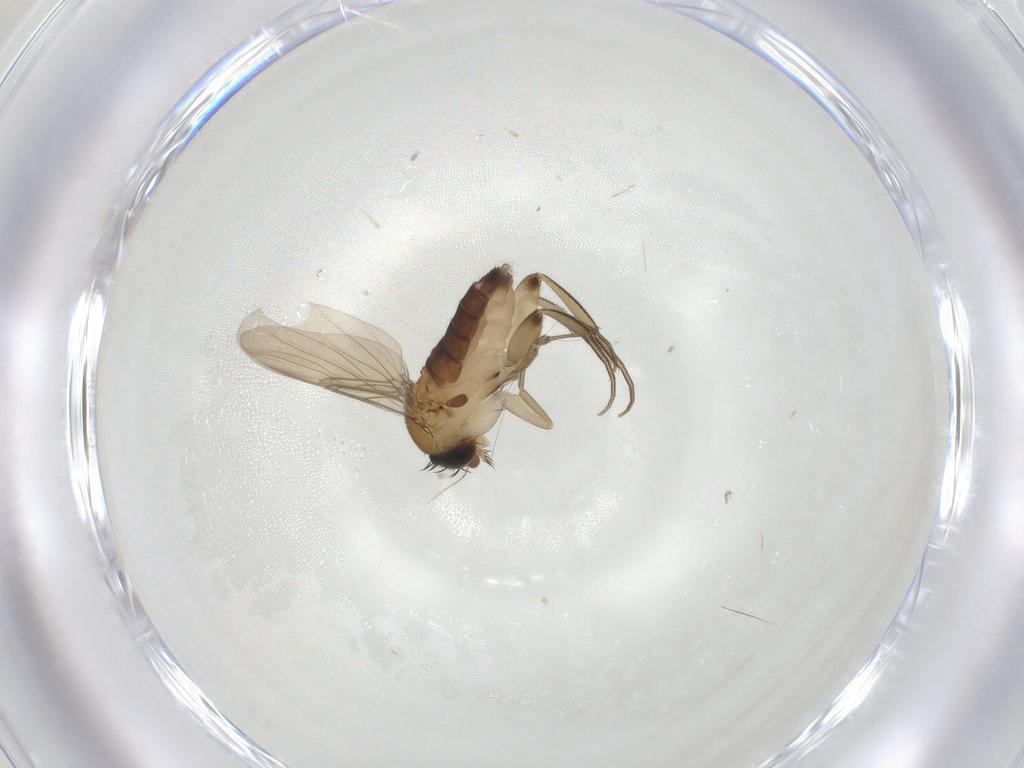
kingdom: Animalia
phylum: Arthropoda
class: Insecta
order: Diptera
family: Phoridae
